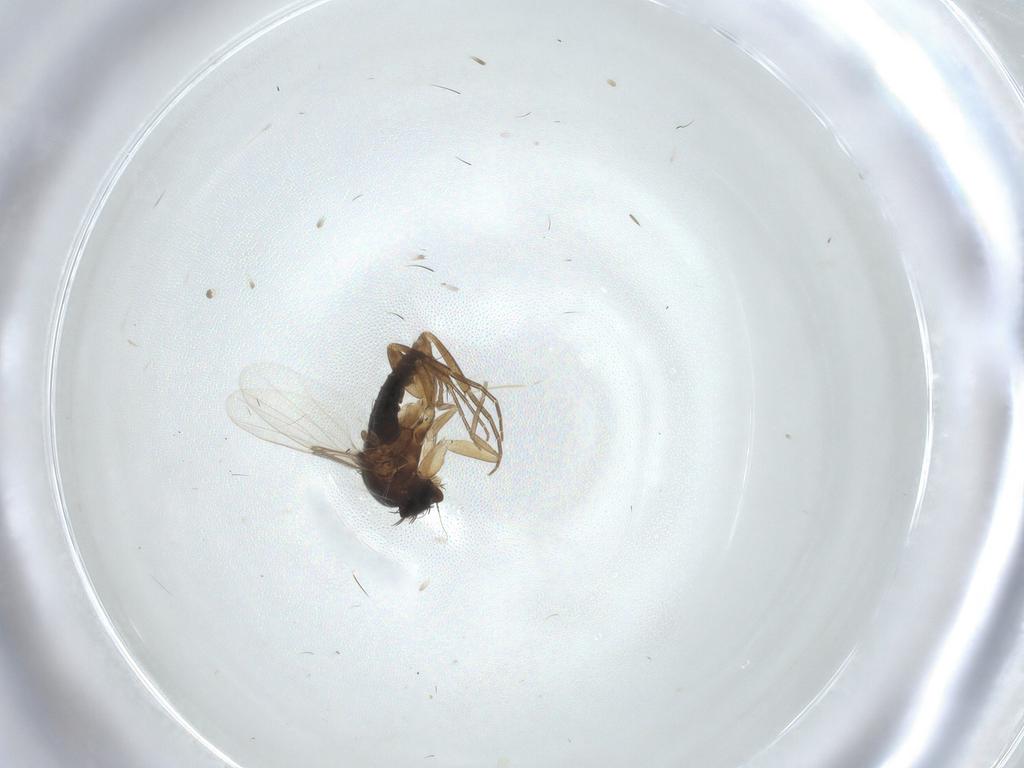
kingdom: Animalia
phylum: Arthropoda
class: Insecta
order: Diptera
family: Phoridae
